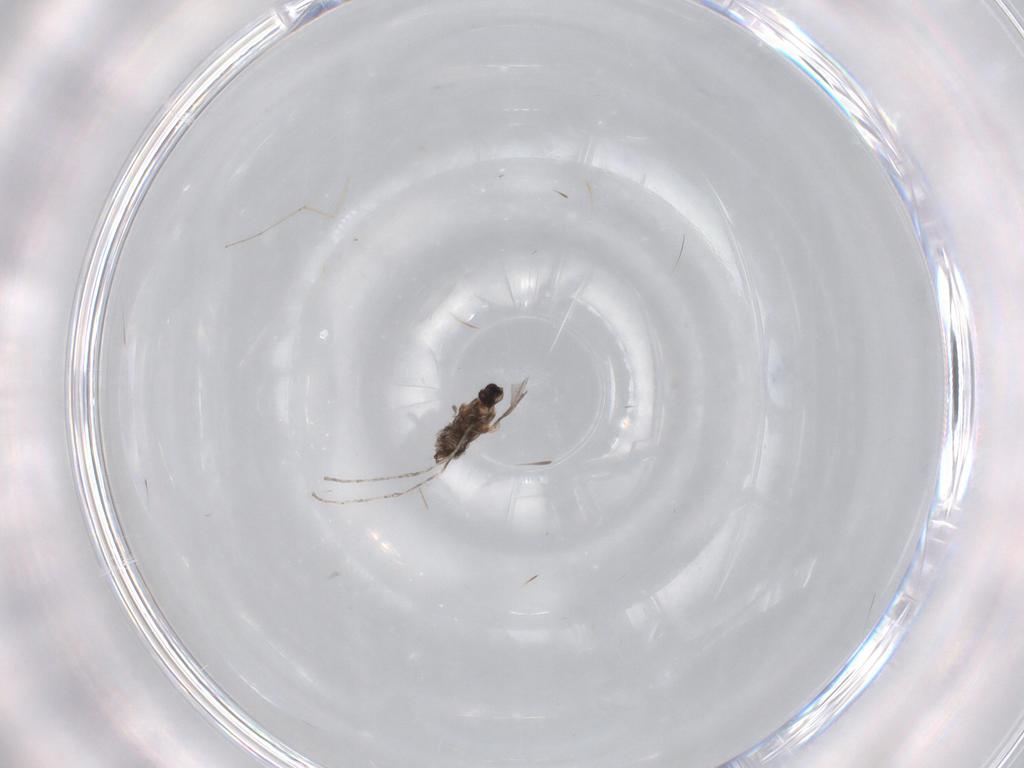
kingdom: Animalia
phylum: Arthropoda
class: Insecta
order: Diptera
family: Cecidomyiidae
